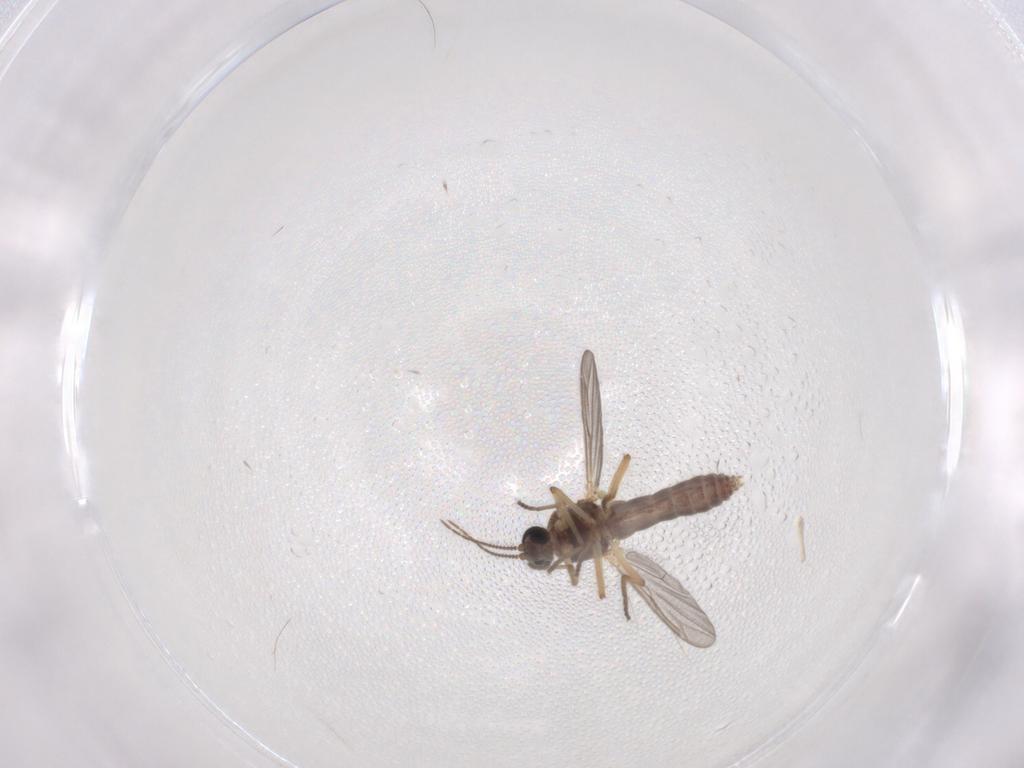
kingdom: Animalia
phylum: Arthropoda
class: Insecta
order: Diptera
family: Ceratopogonidae
